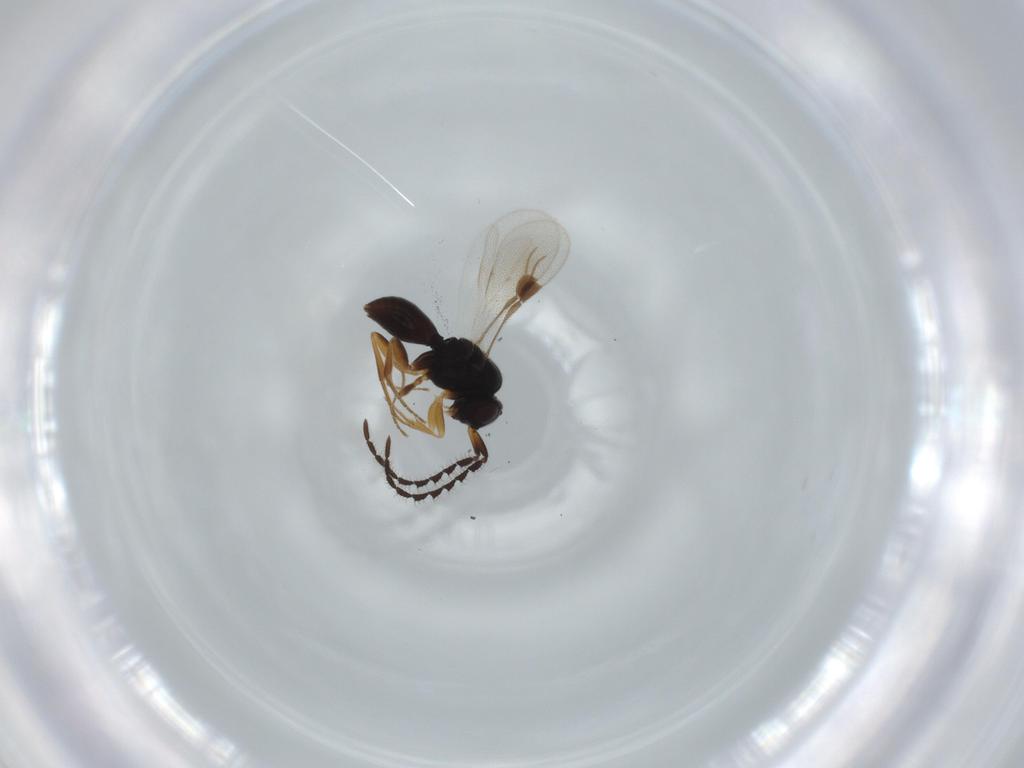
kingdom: Animalia
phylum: Arthropoda
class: Insecta
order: Hymenoptera
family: Megaspilidae
